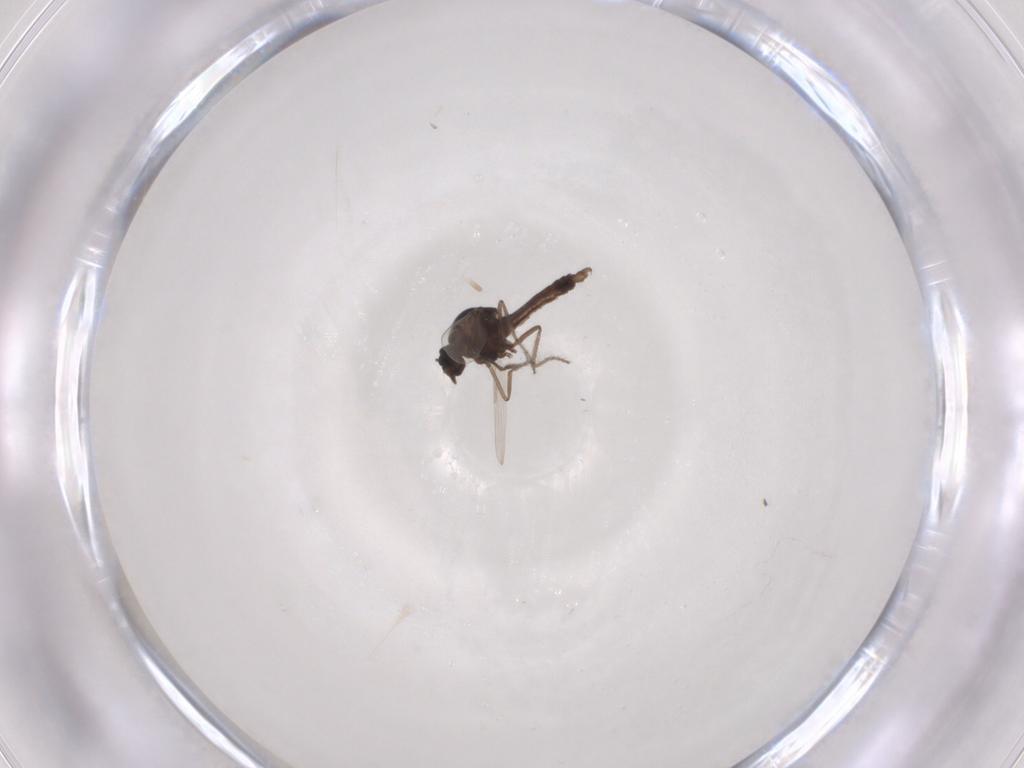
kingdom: Animalia
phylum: Arthropoda
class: Insecta
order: Diptera
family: Ceratopogonidae
